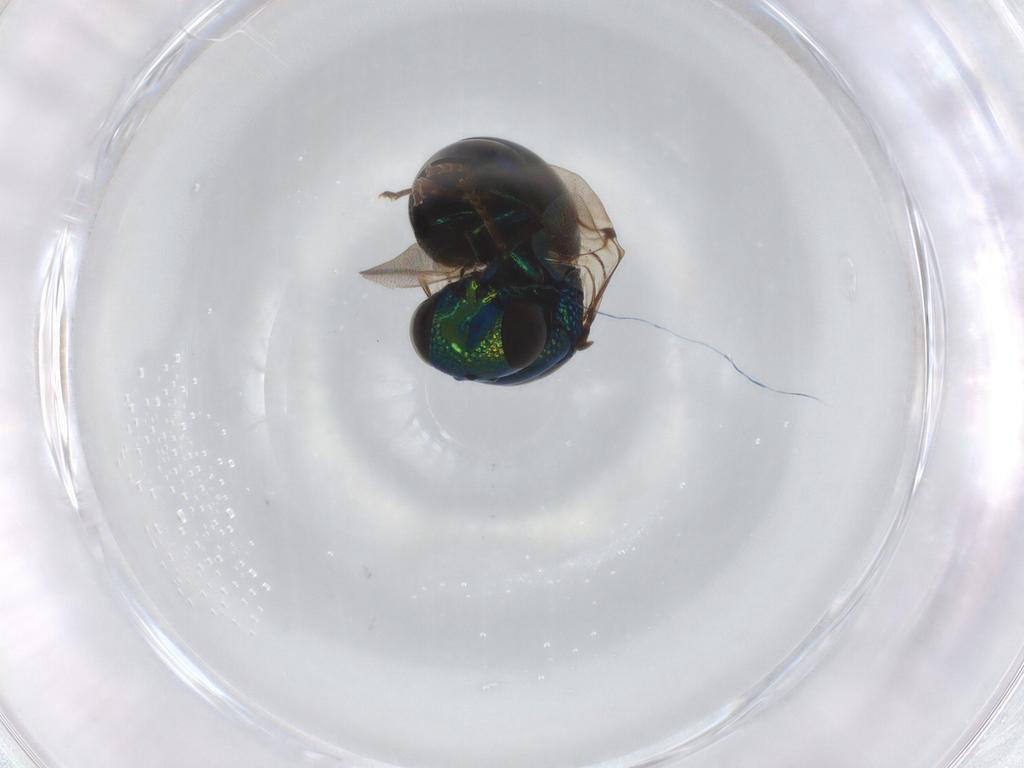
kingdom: Animalia
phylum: Arthropoda
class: Insecta
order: Hymenoptera
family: Chrysididae
